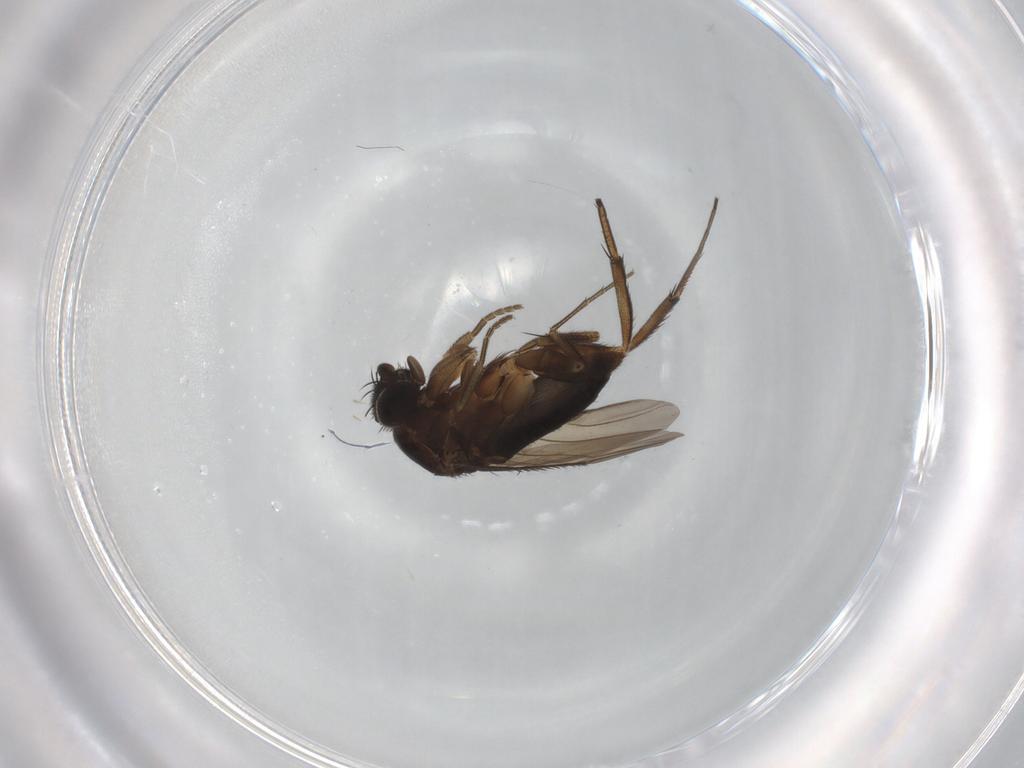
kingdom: Animalia
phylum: Arthropoda
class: Insecta
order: Diptera
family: Phoridae
